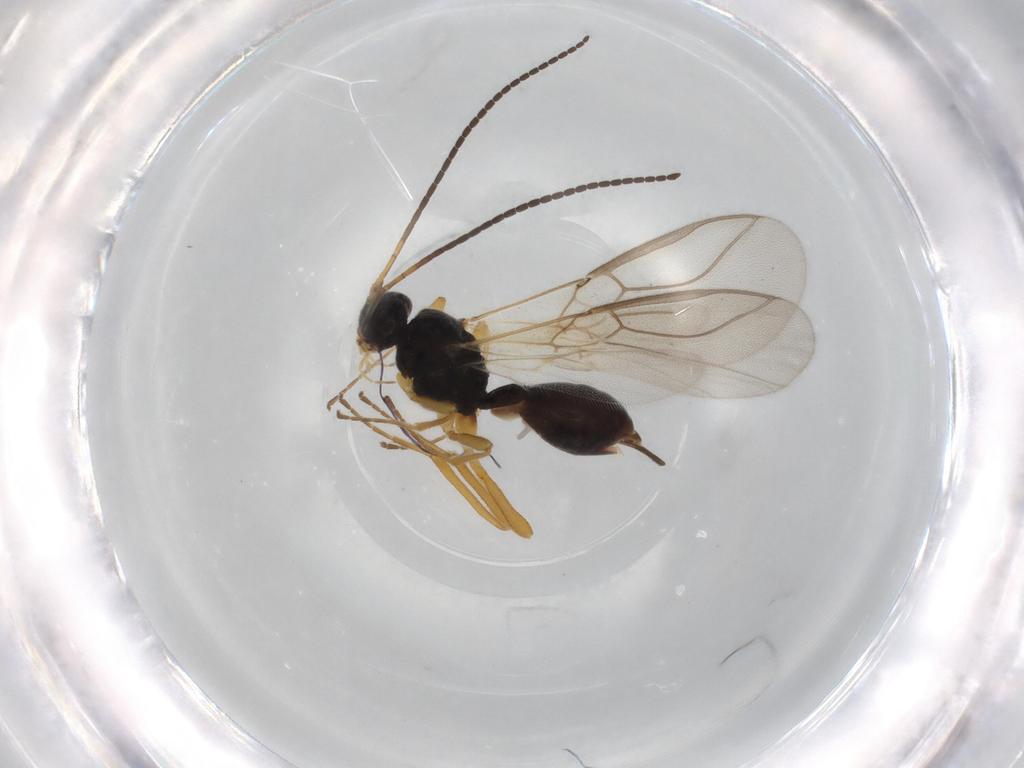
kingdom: Animalia
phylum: Arthropoda
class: Insecta
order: Hymenoptera
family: Braconidae
